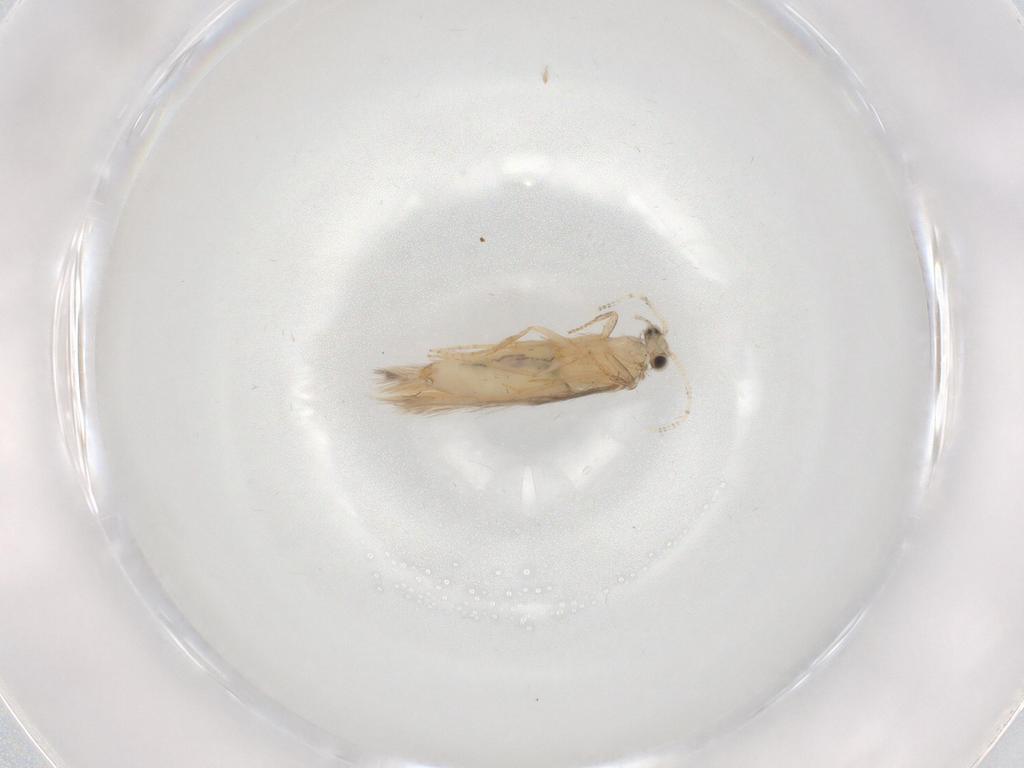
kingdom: Animalia
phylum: Arthropoda
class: Insecta
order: Trichoptera
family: Hydroptilidae
